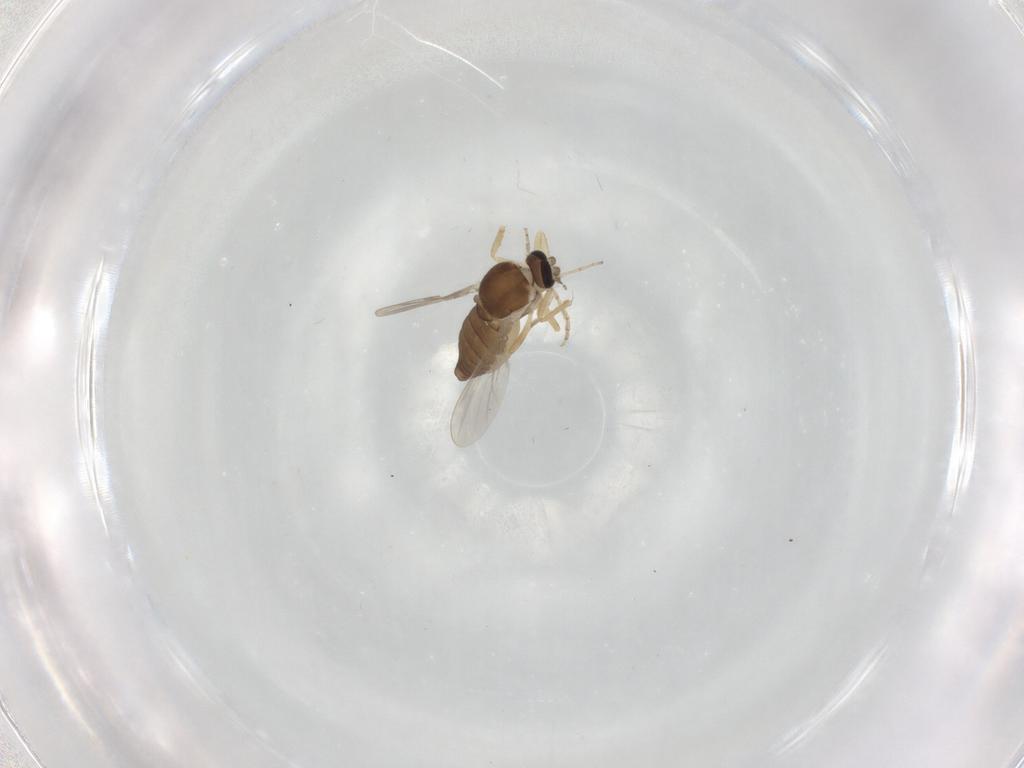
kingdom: Animalia
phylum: Arthropoda
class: Insecta
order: Diptera
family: Ceratopogonidae
